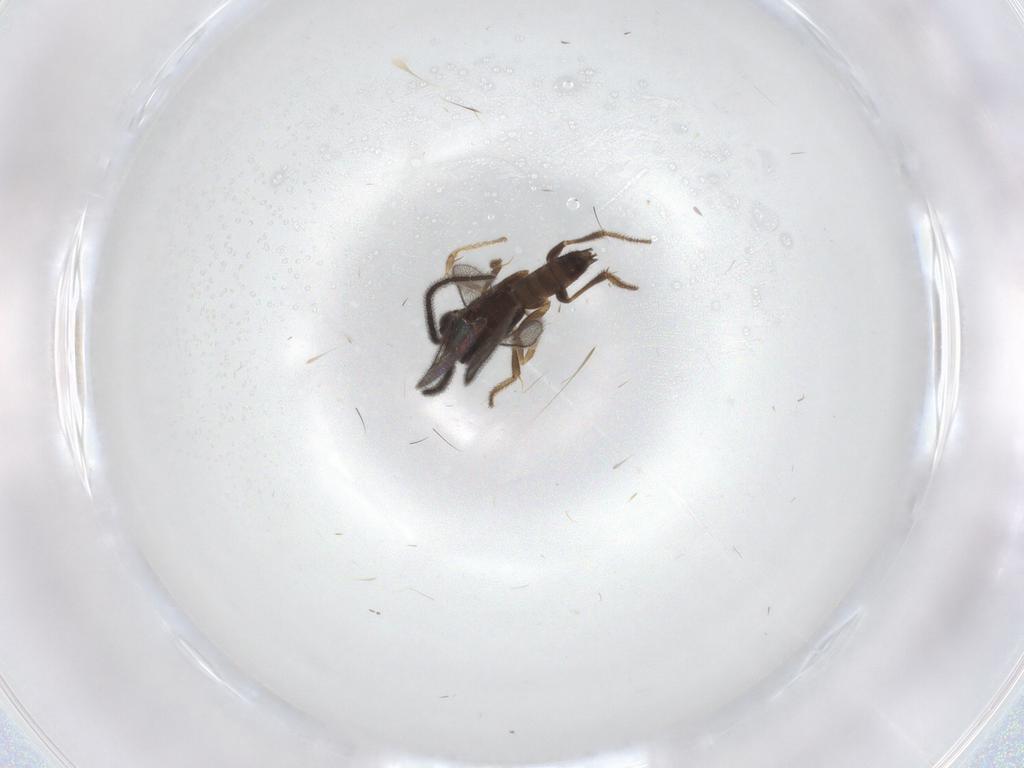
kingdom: Animalia
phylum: Arthropoda
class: Insecta
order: Hymenoptera
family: Dryinidae
